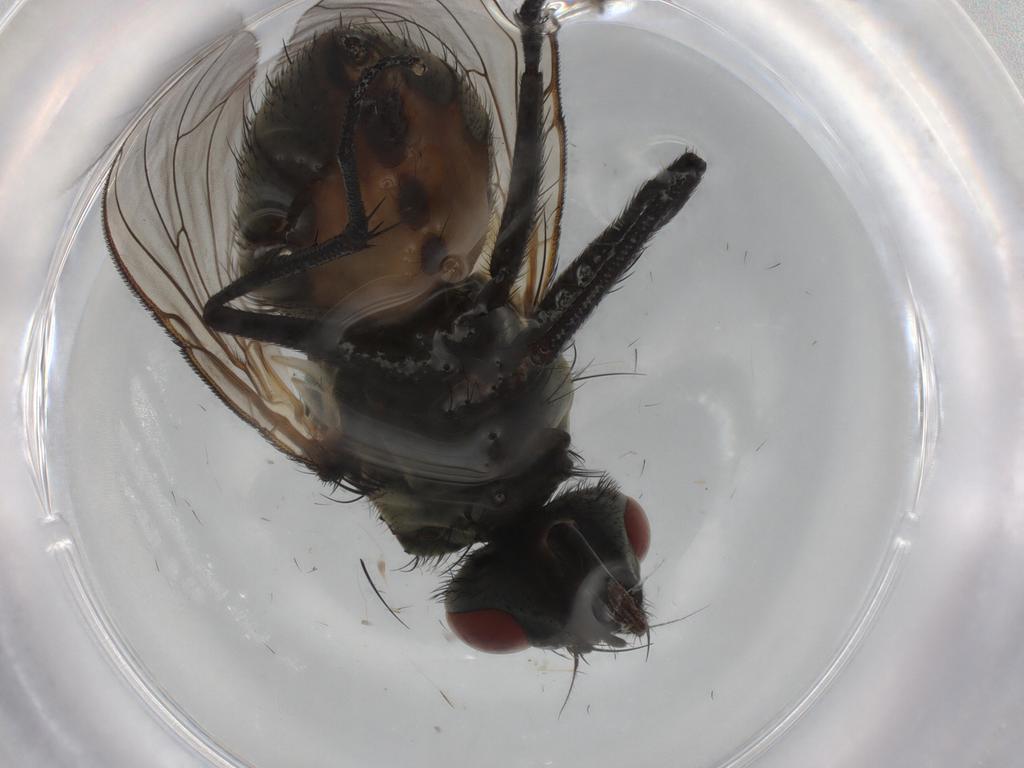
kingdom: Animalia
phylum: Arthropoda
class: Insecta
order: Diptera
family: Muscidae
